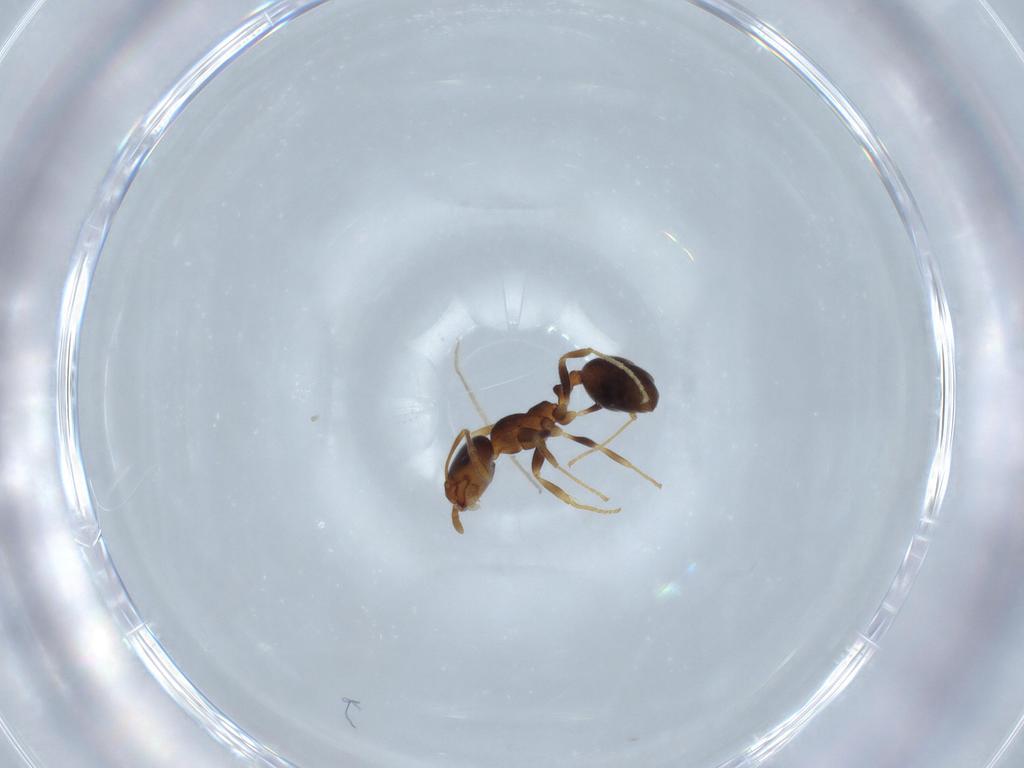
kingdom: Animalia
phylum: Arthropoda
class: Insecta
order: Hymenoptera
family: Formicidae
